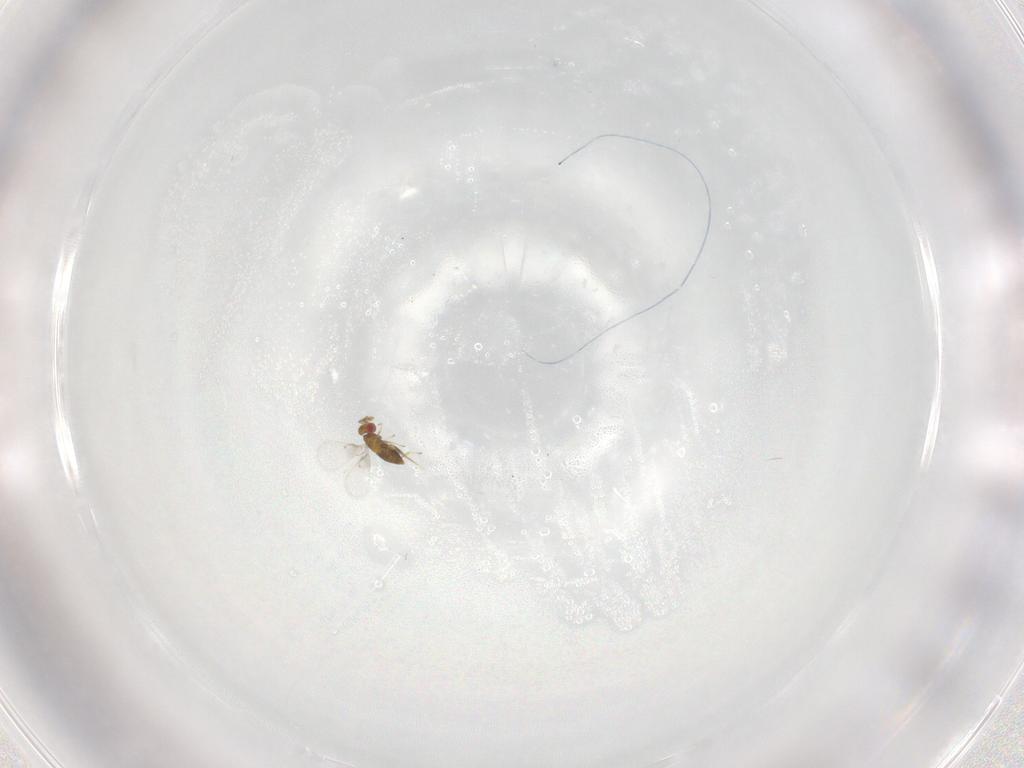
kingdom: Animalia
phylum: Arthropoda
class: Insecta
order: Hymenoptera
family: Trichogrammatidae
